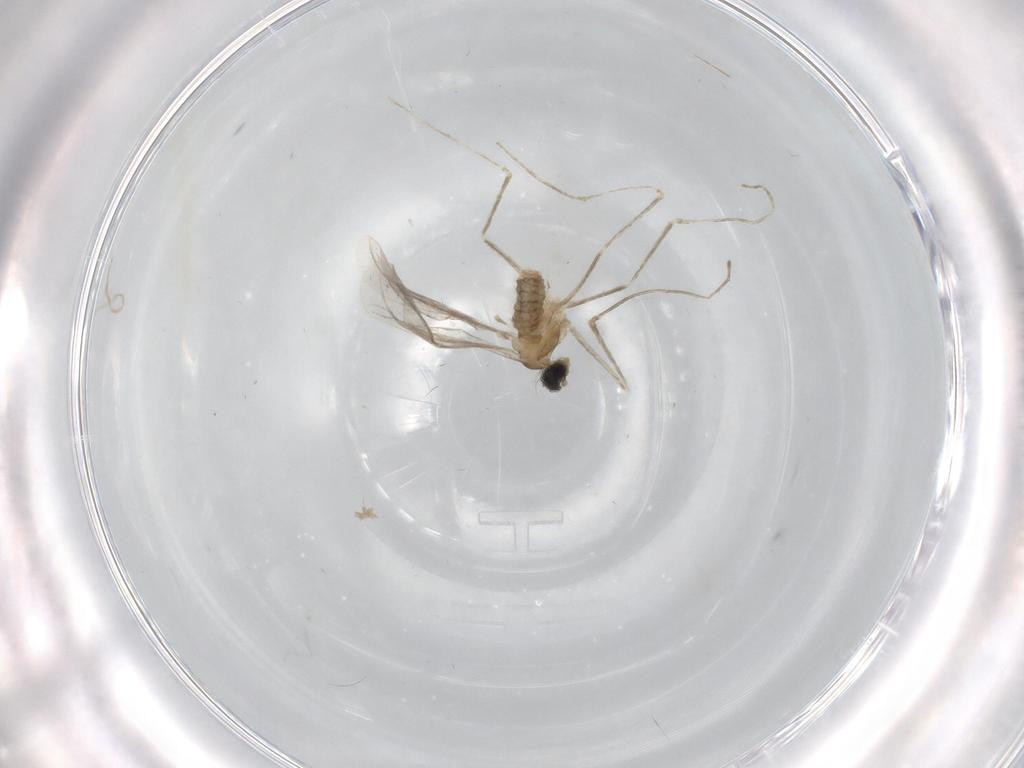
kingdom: Animalia
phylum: Arthropoda
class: Insecta
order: Diptera
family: Cecidomyiidae
